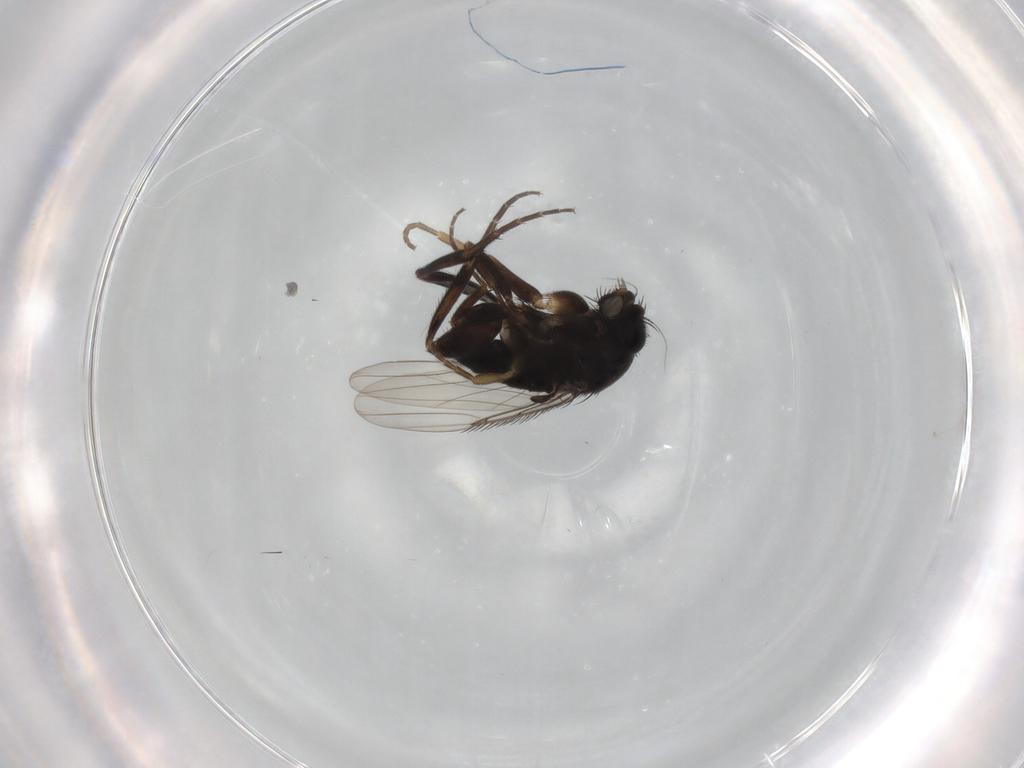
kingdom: Animalia
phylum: Arthropoda
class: Insecta
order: Diptera
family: Phoridae
